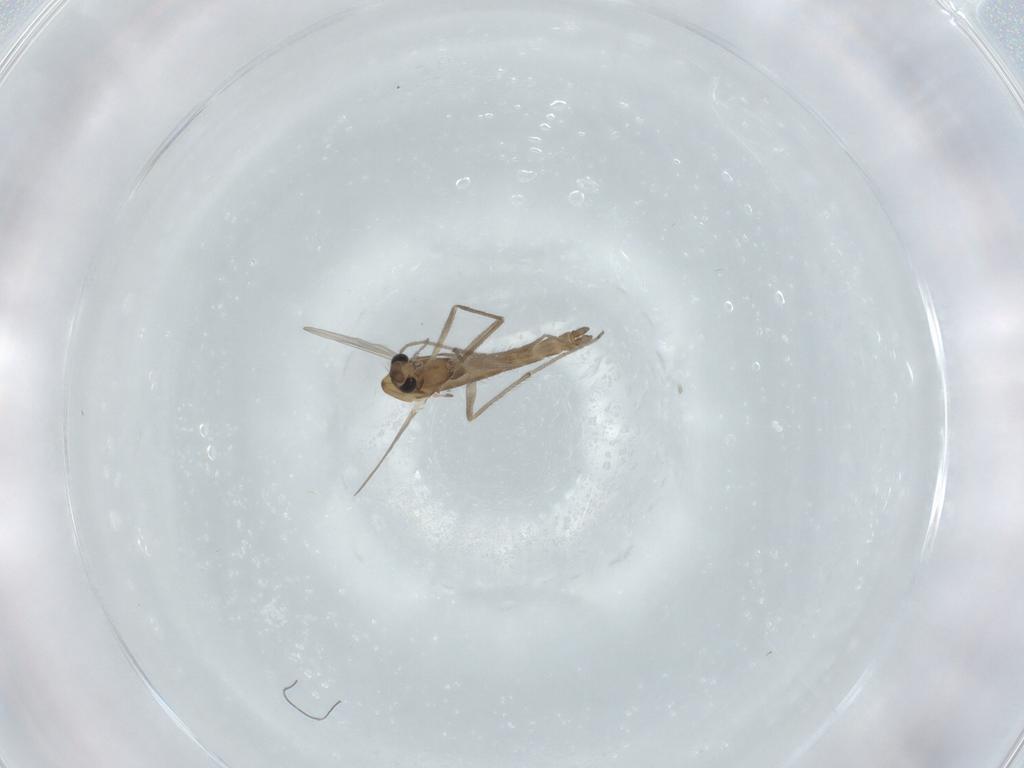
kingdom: Animalia
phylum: Arthropoda
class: Insecta
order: Diptera
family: Chironomidae
